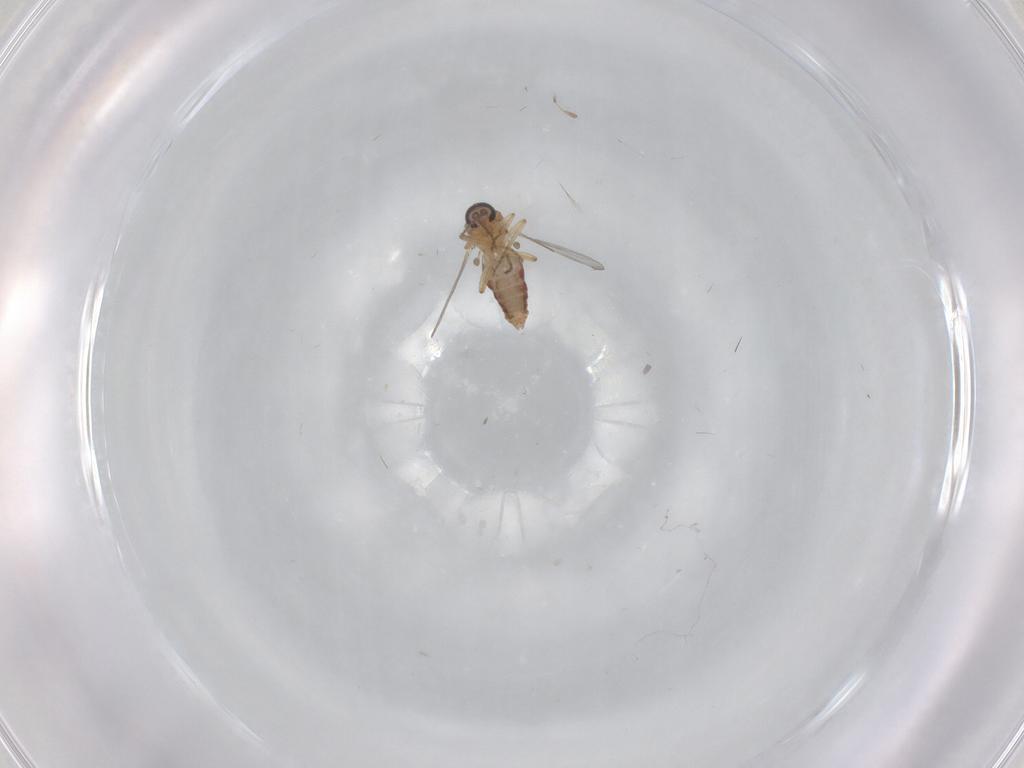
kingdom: Animalia
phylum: Arthropoda
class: Insecta
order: Diptera
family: Ceratopogonidae
